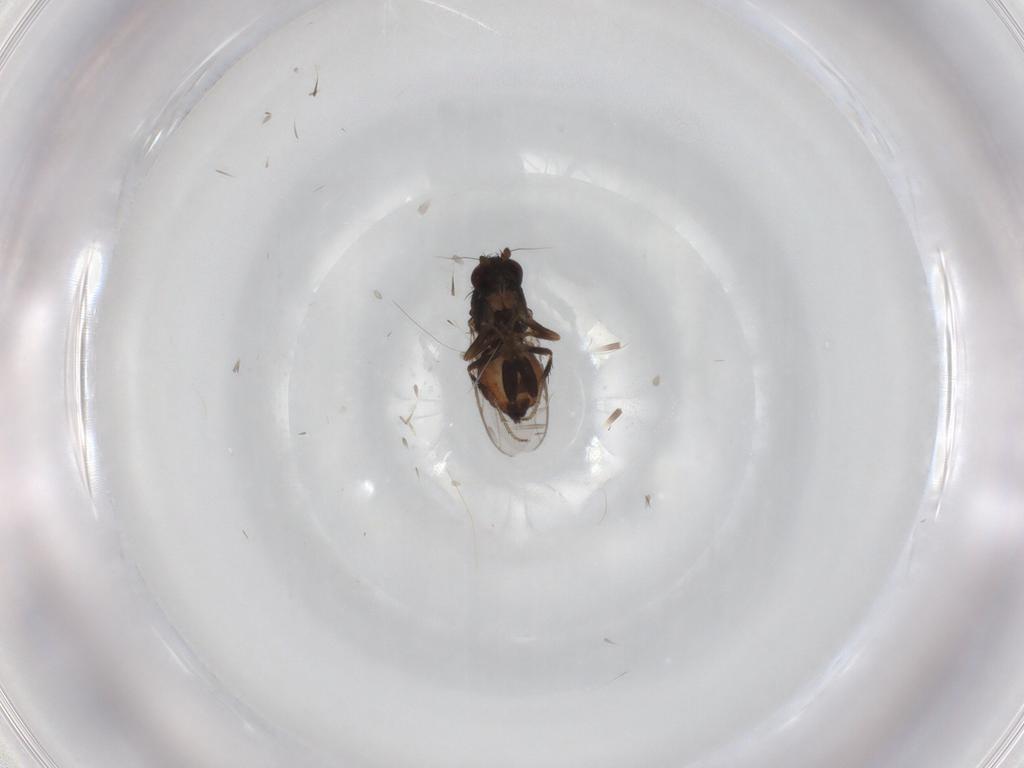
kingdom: Animalia
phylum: Arthropoda
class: Insecta
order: Diptera
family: Sphaeroceridae
